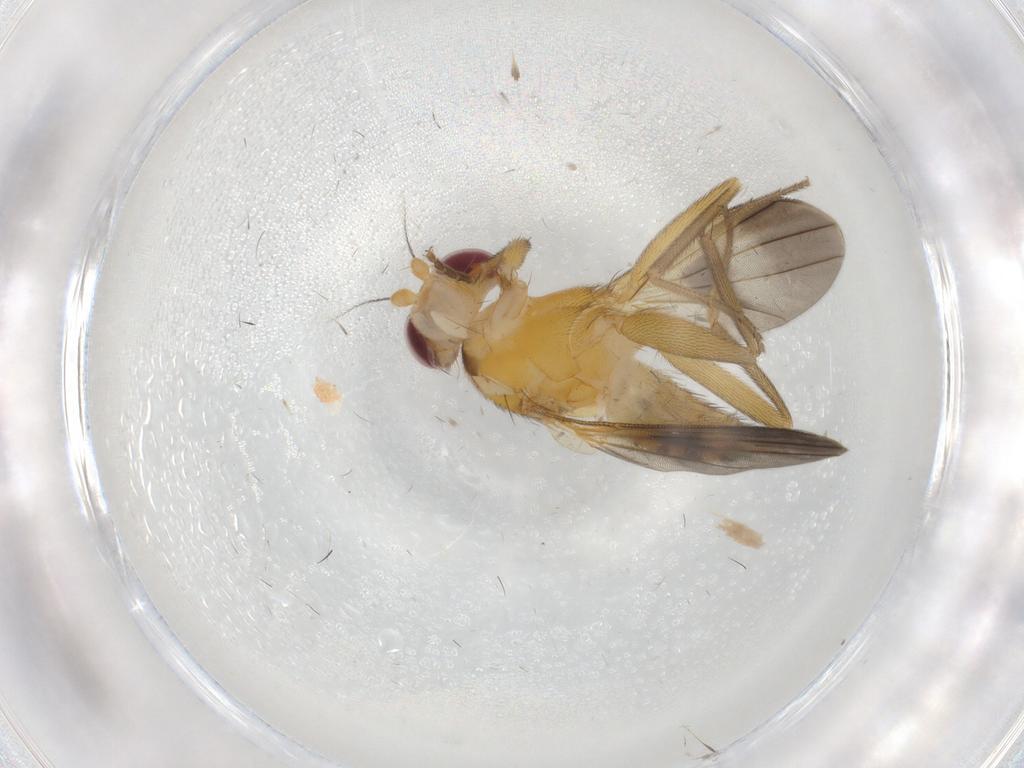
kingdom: Animalia
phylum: Arthropoda
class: Insecta
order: Diptera
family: Clusiidae
